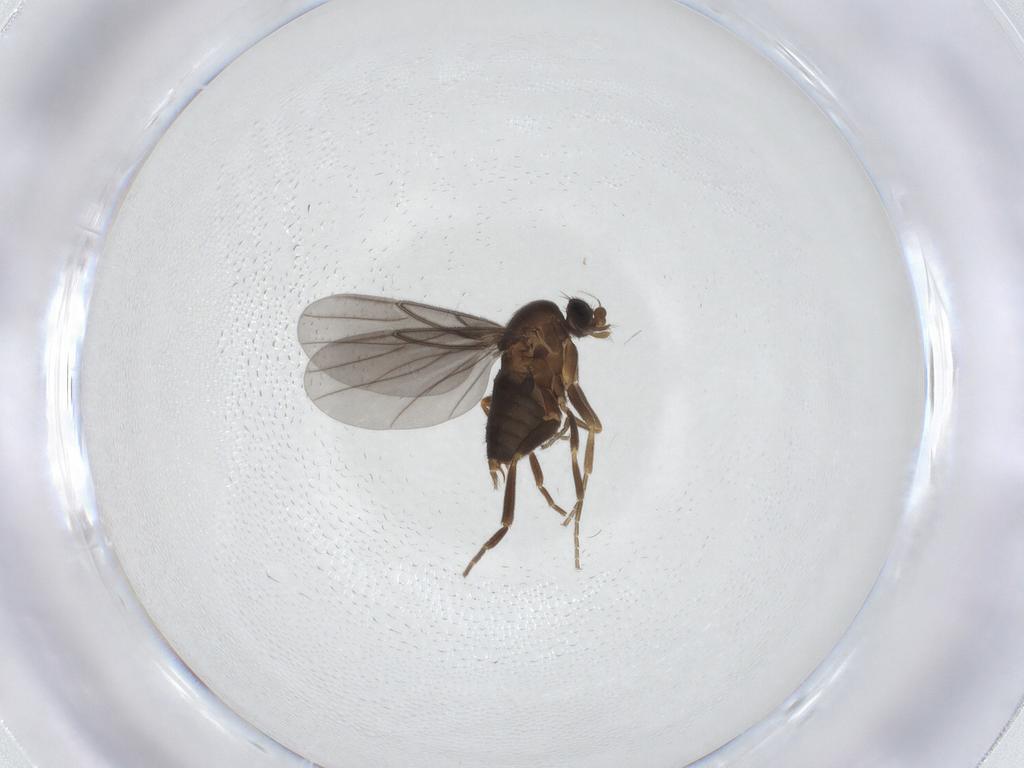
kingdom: Animalia
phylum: Arthropoda
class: Insecta
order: Diptera
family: Phoridae
